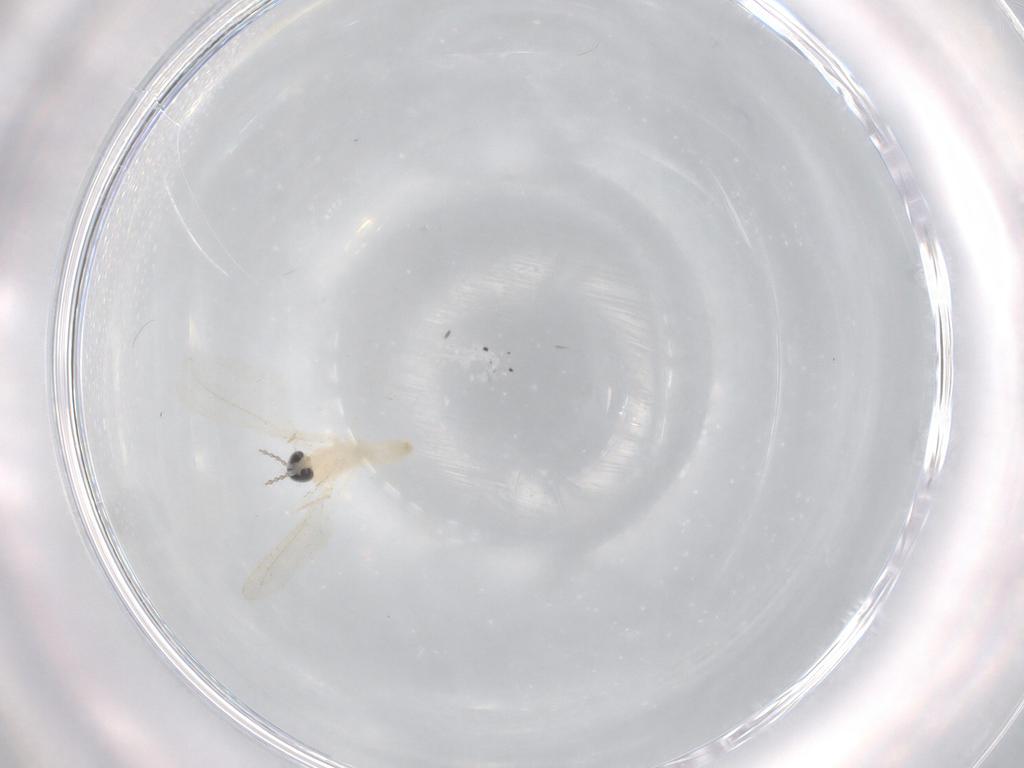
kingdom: Animalia
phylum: Arthropoda
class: Insecta
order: Diptera
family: Cecidomyiidae
